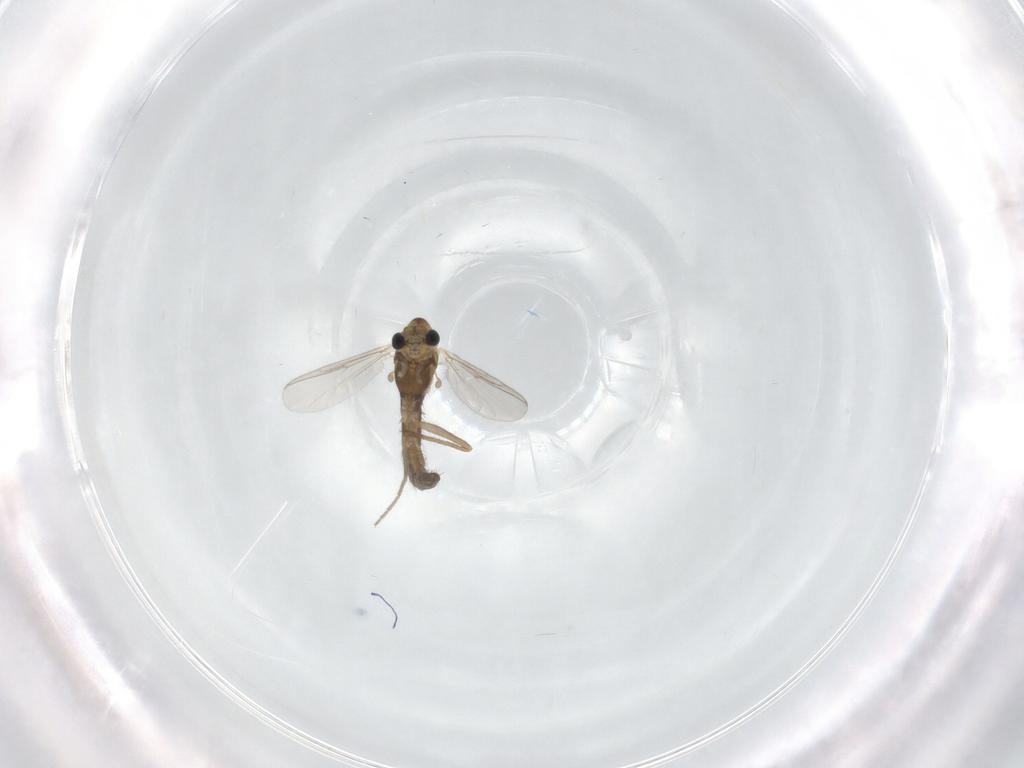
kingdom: Animalia
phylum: Arthropoda
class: Insecta
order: Diptera
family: Chironomidae
